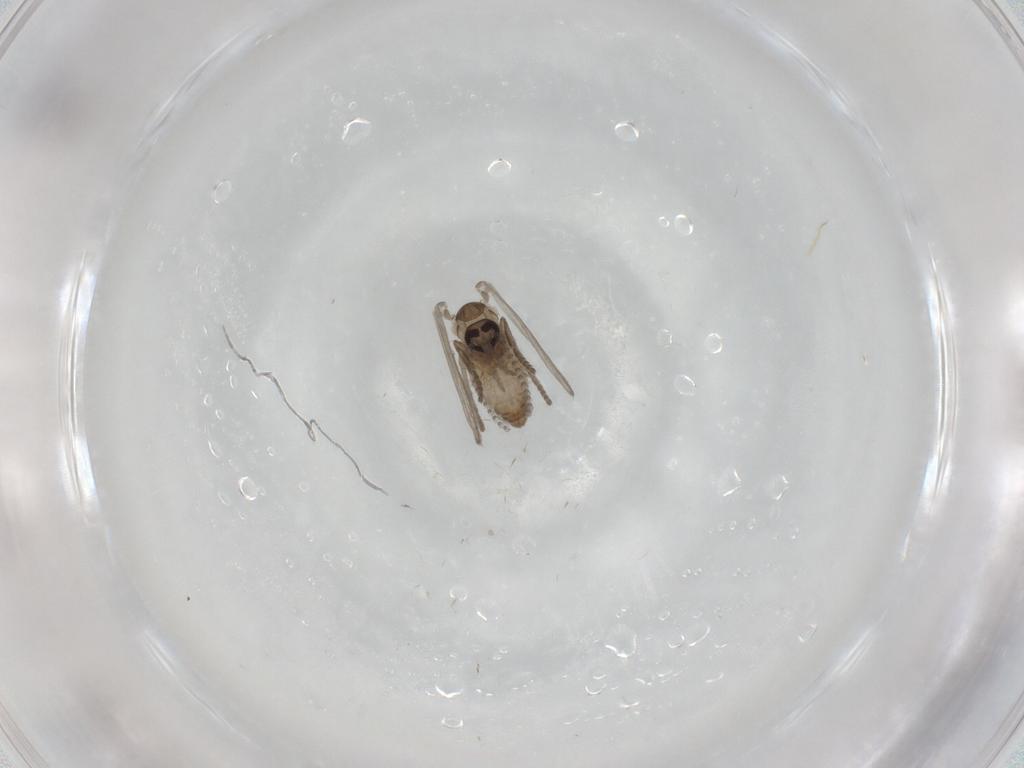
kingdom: Animalia
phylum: Arthropoda
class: Insecta
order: Diptera
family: Psychodidae
